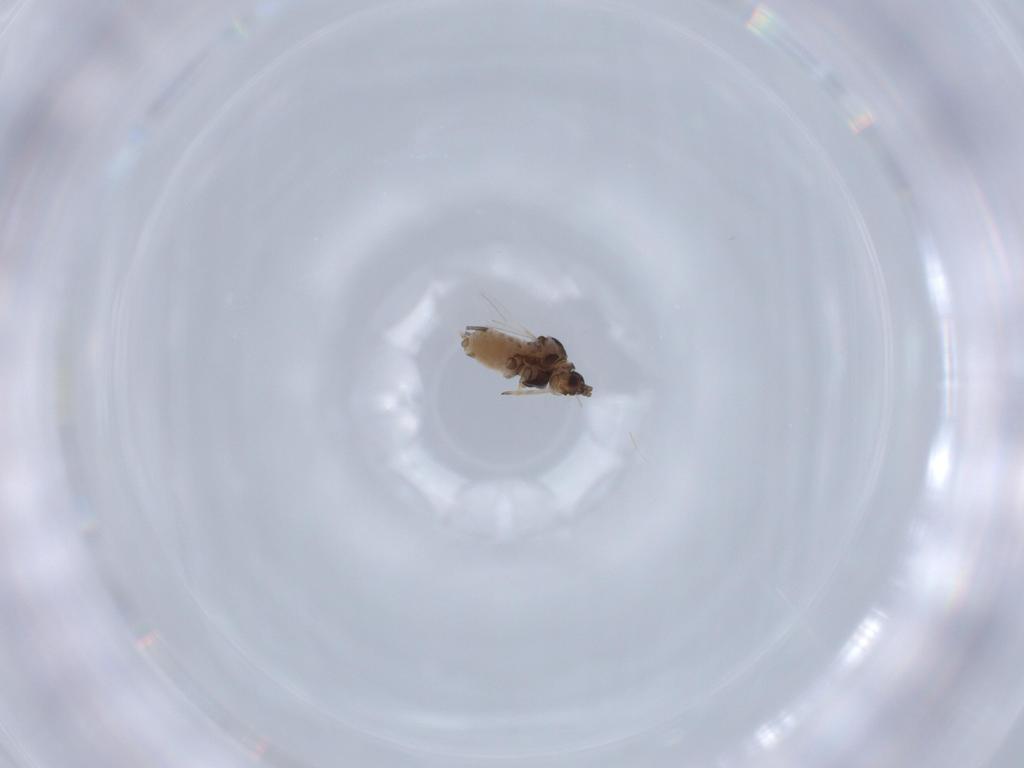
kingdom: Animalia
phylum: Arthropoda
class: Insecta
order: Hemiptera
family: Aphididae
